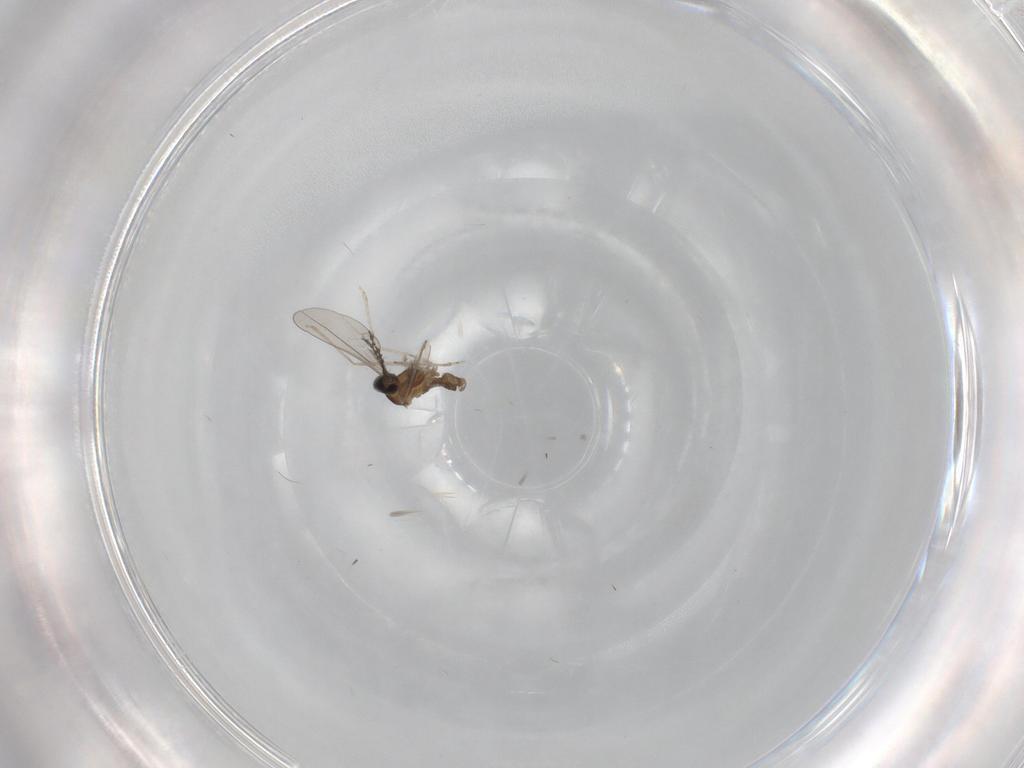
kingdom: Animalia
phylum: Arthropoda
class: Insecta
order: Diptera
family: Cecidomyiidae
